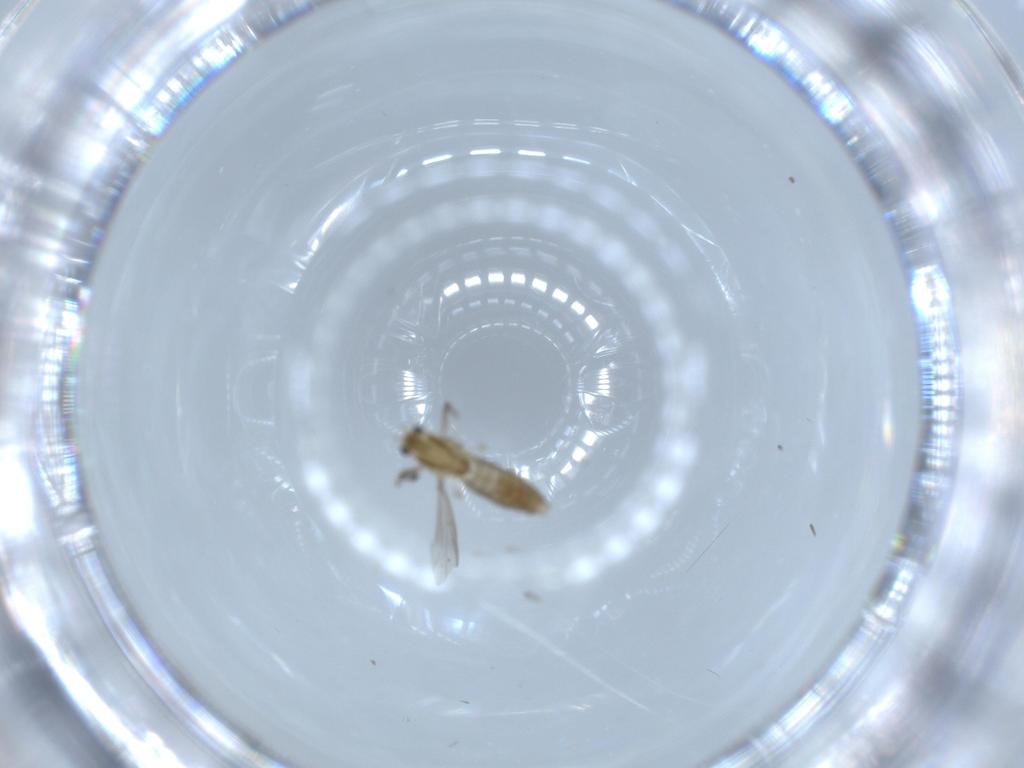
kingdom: Animalia
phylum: Arthropoda
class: Insecta
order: Diptera
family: Chironomidae
